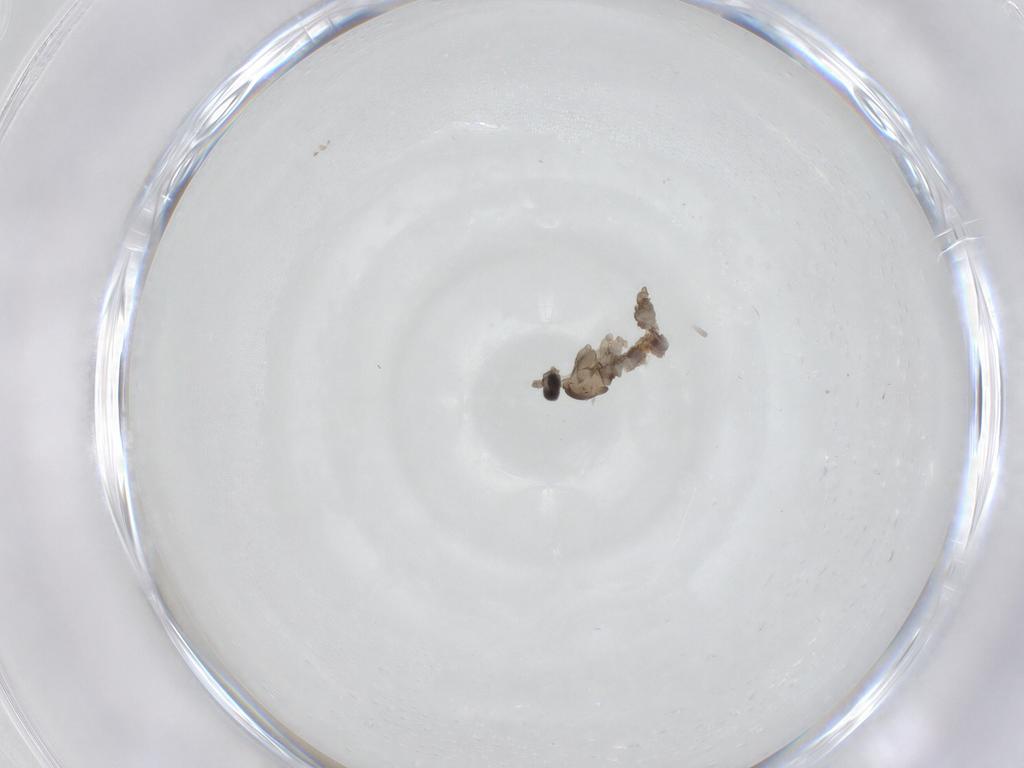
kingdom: Animalia
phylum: Arthropoda
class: Insecta
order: Diptera
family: Cecidomyiidae
